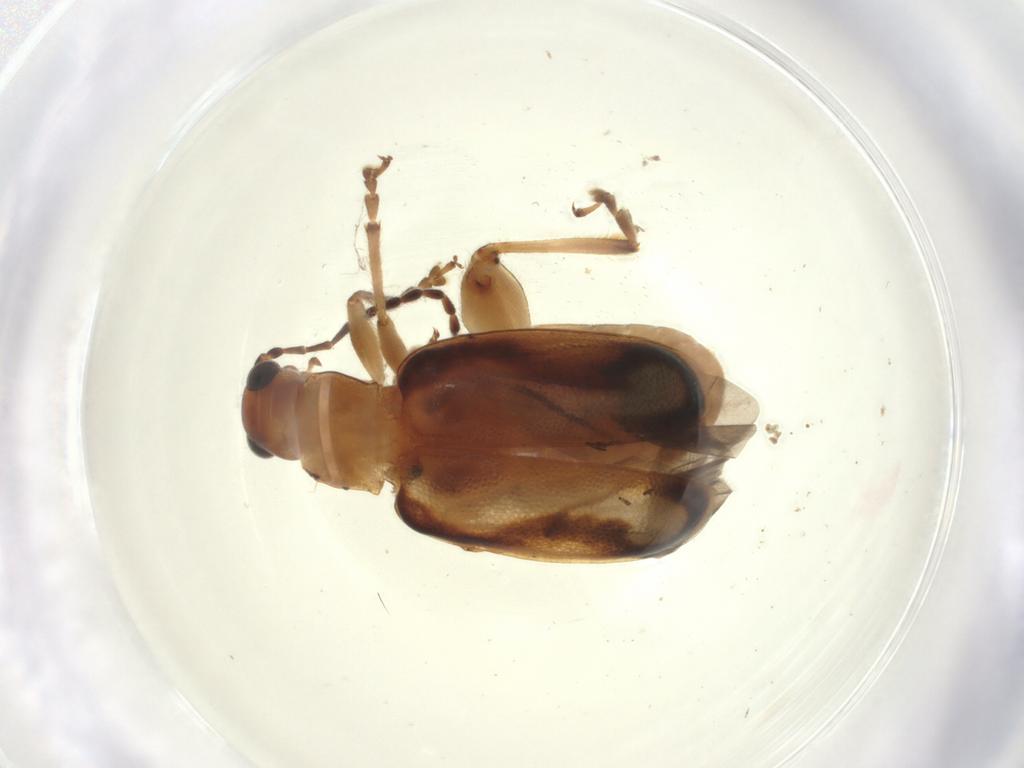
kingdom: Animalia
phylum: Arthropoda
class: Insecta
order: Coleoptera
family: Chrysomelidae
